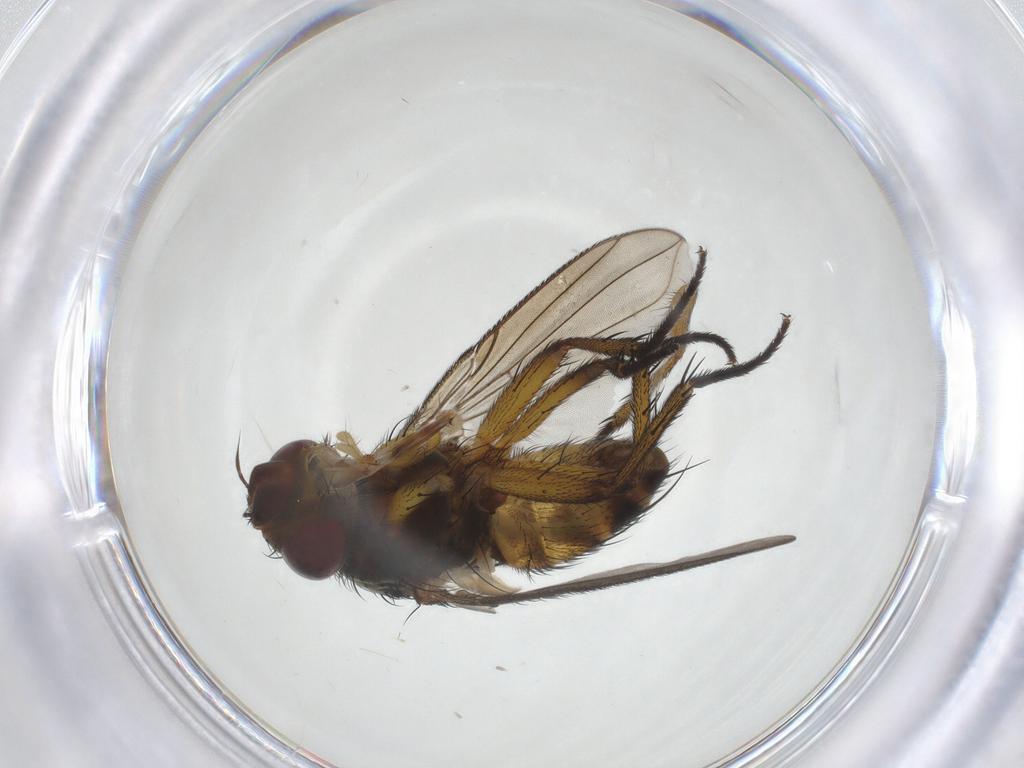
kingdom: Animalia
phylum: Arthropoda
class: Insecta
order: Diptera
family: Tachinidae
